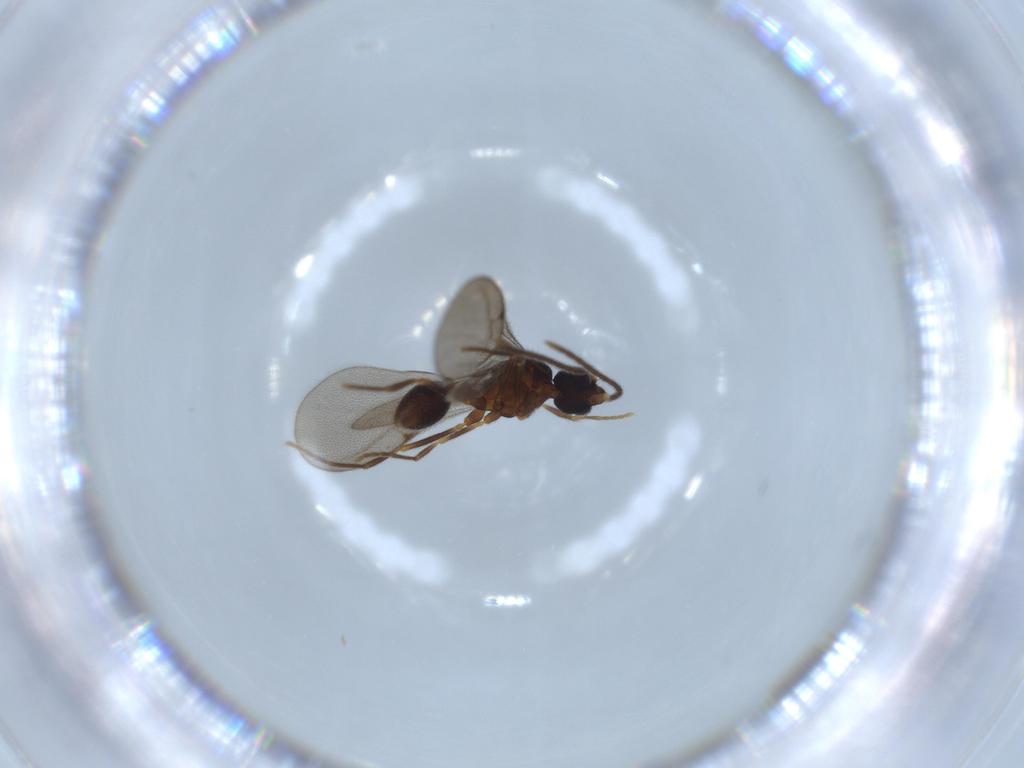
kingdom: Animalia
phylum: Arthropoda
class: Insecta
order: Hymenoptera
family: Formicidae
